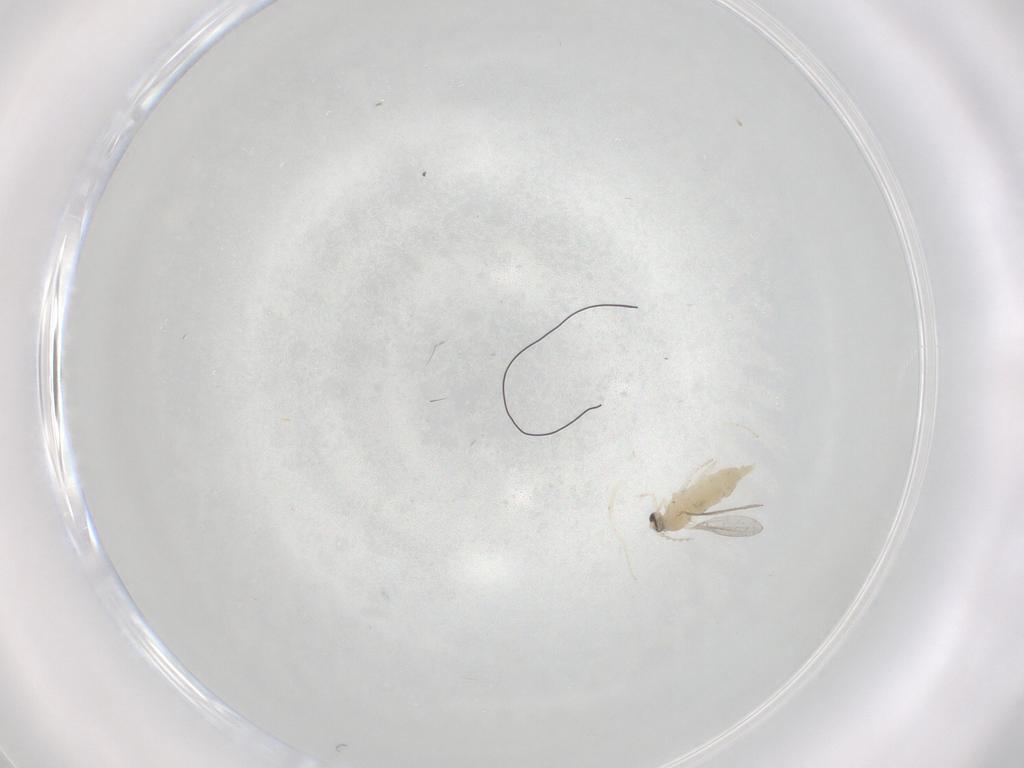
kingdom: Animalia
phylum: Arthropoda
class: Insecta
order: Diptera
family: Cecidomyiidae
